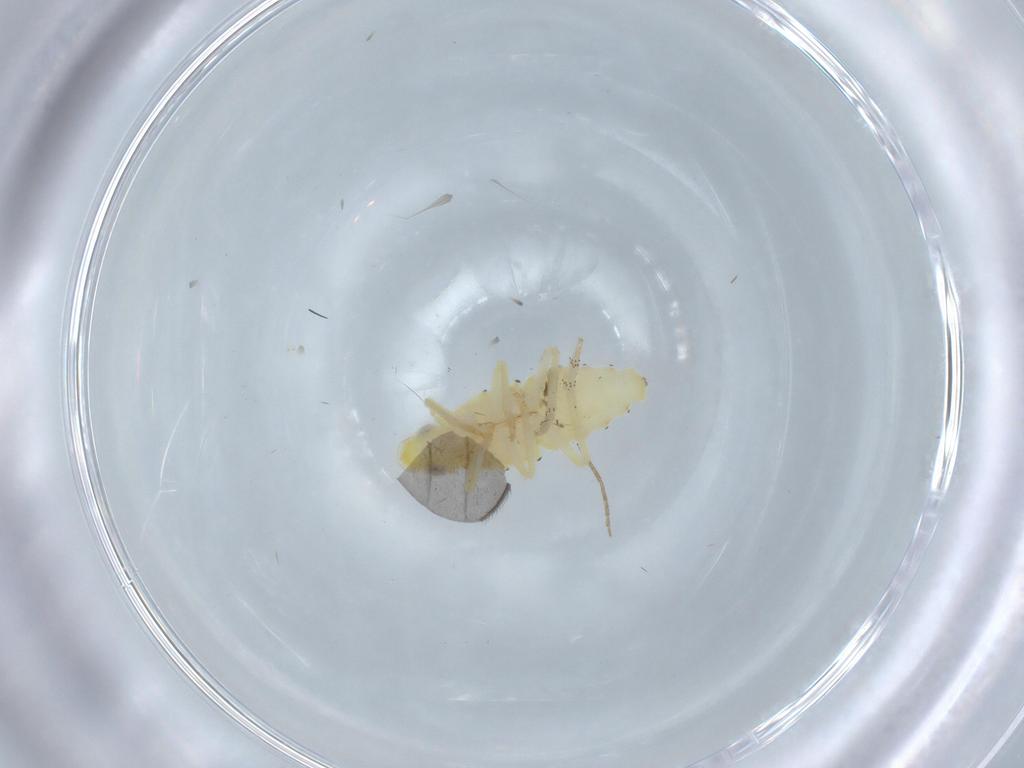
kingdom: Animalia
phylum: Arthropoda
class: Insecta
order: Hemiptera
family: Tropiduchidae
